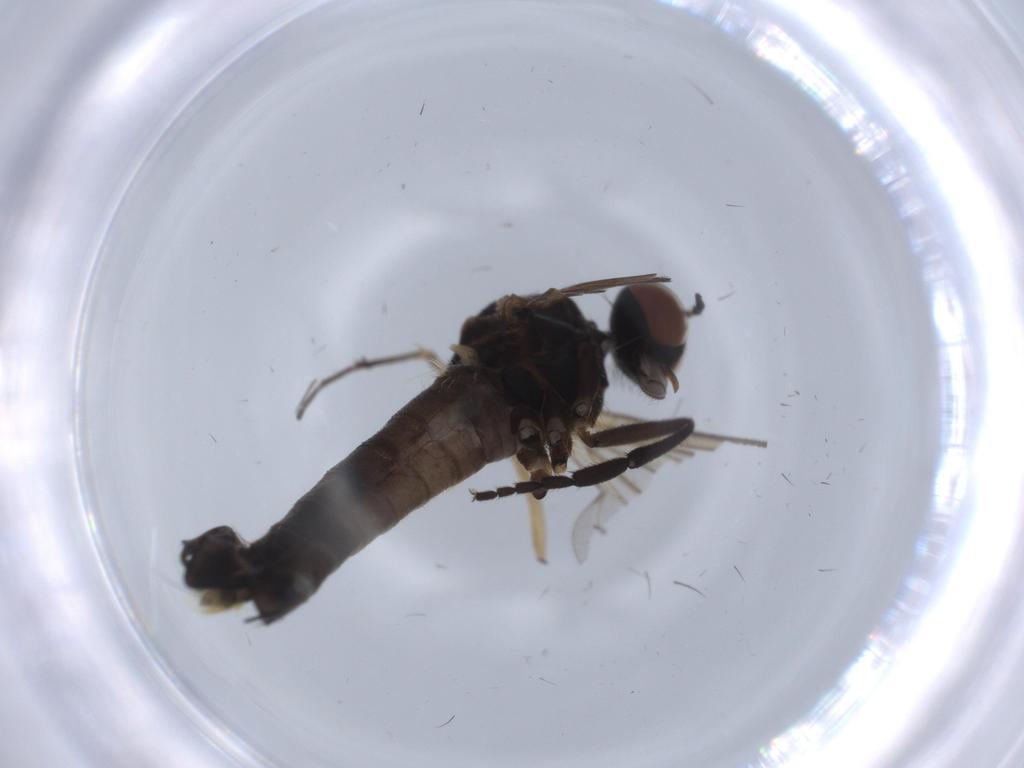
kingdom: Animalia
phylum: Arthropoda
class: Insecta
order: Diptera
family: Empididae
